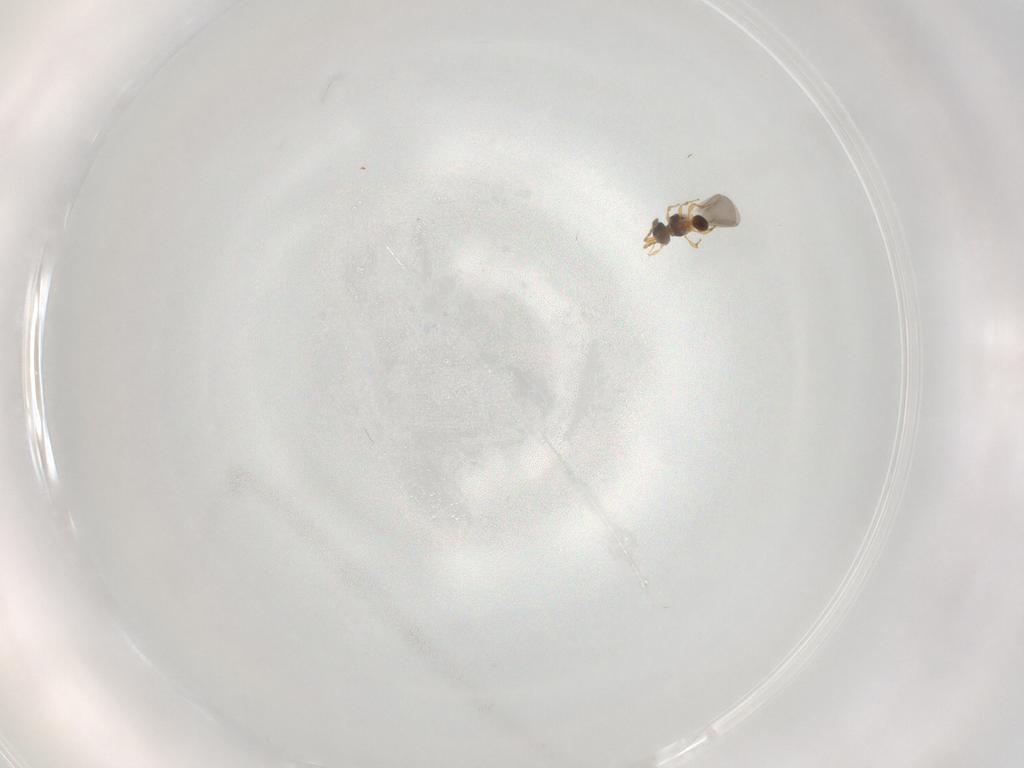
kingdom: Animalia
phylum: Arthropoda
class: Insecta
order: Hymenoptera
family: Platygastridae
